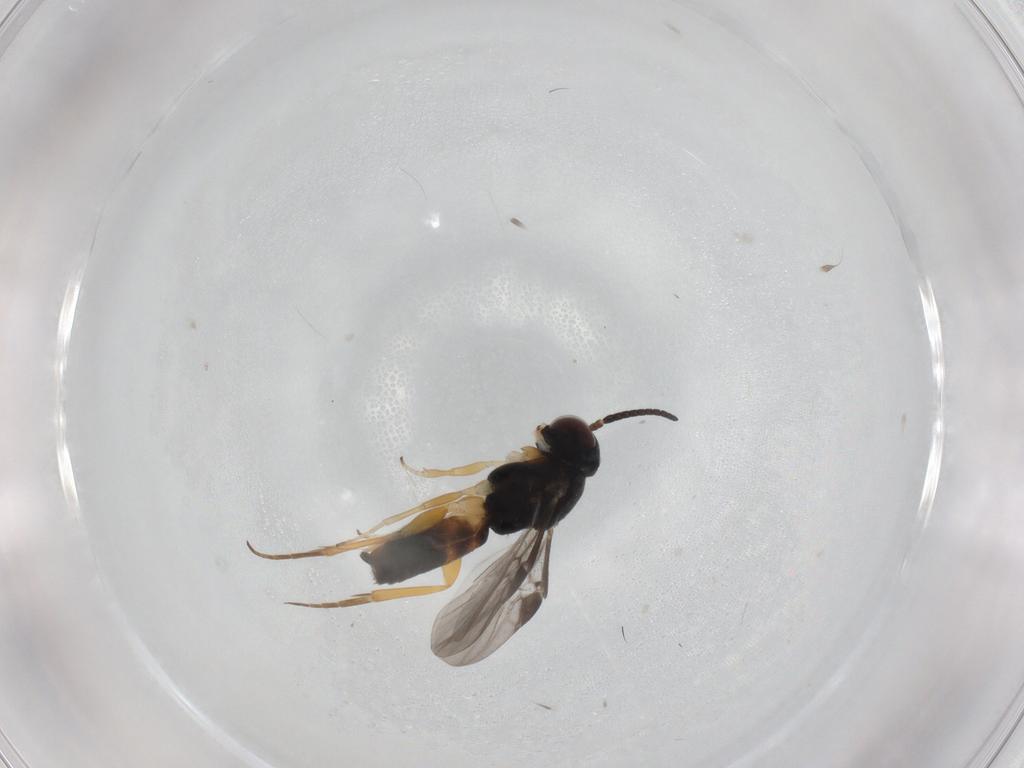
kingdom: Animalia
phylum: Arthropoda
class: Insecta
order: Hymenoptera
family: Braconidae
